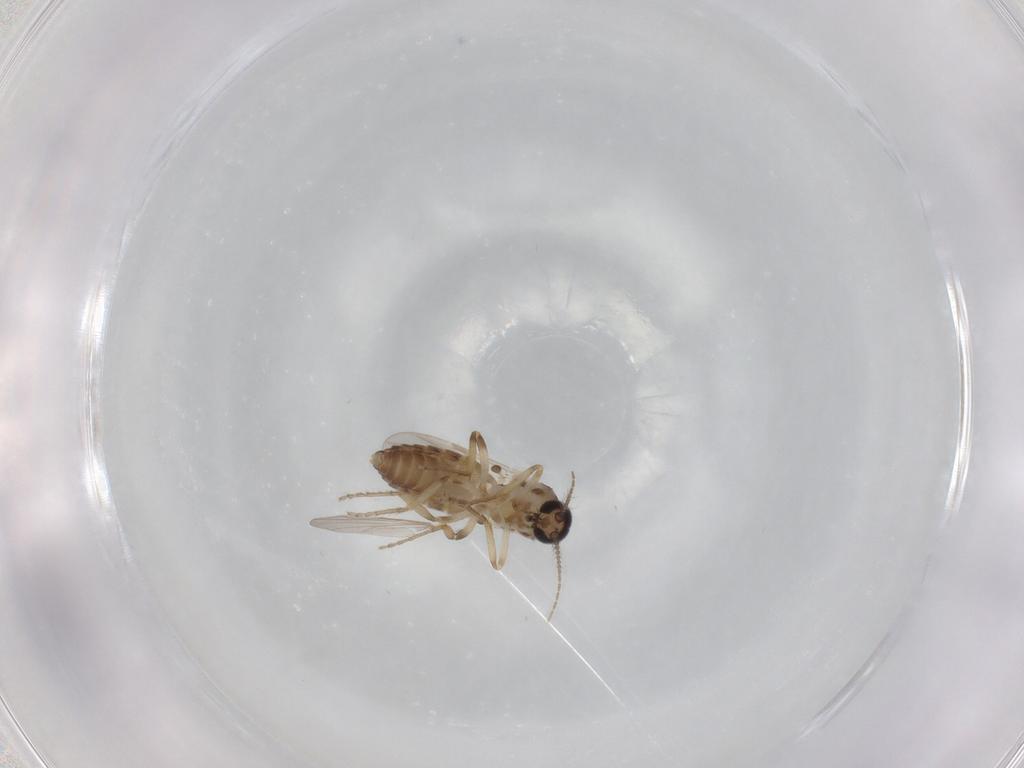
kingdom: Animalia
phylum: Arthropoda
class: Insecta
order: Diptera
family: Ceratopogonidae
